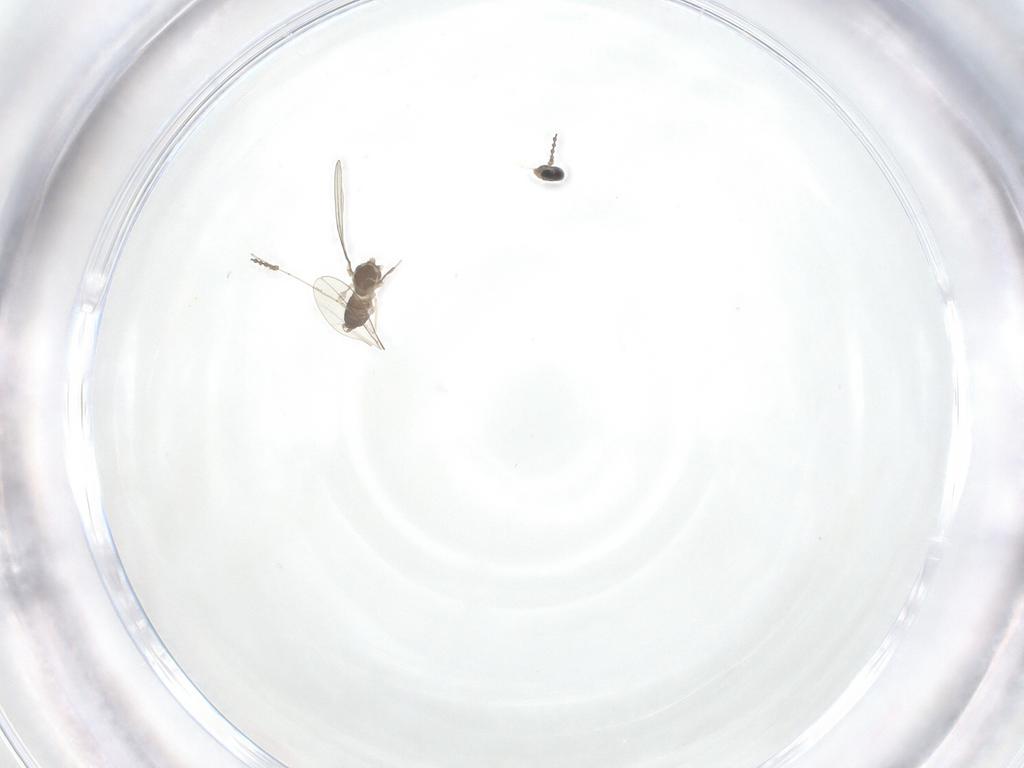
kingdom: Animalia
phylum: Arthropoda
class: Insecta
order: Diptera
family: Cecidomyiidae
